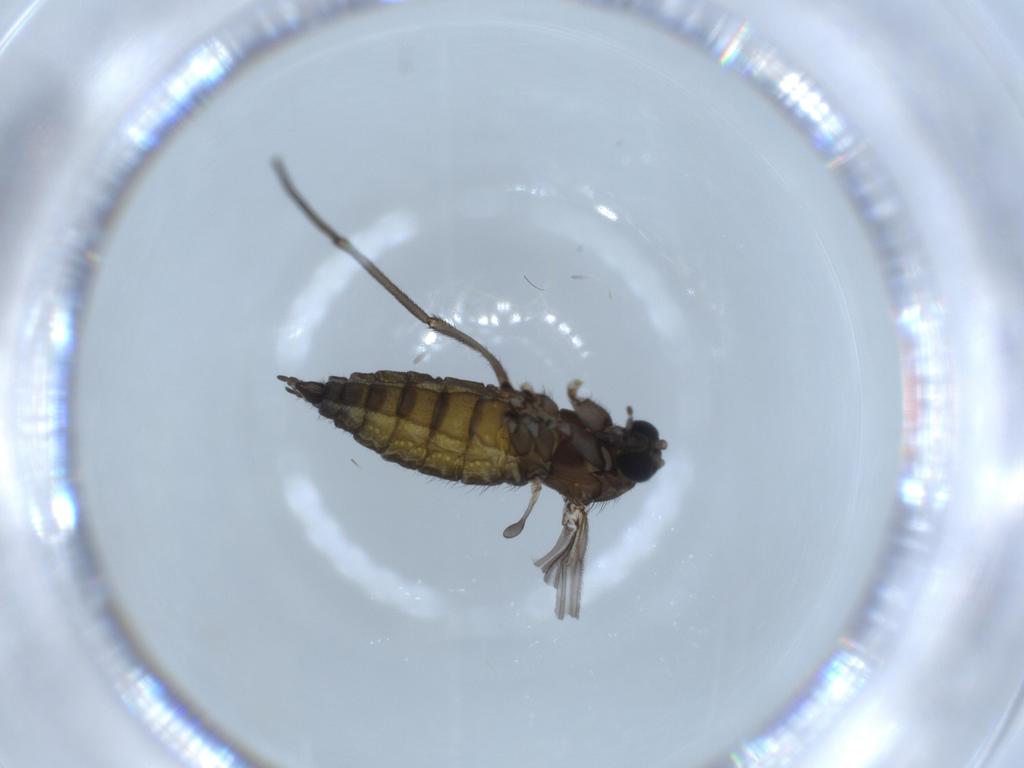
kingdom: Animalia
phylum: Arthropoda
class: Insecta
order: Diptera
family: Sciaridae
